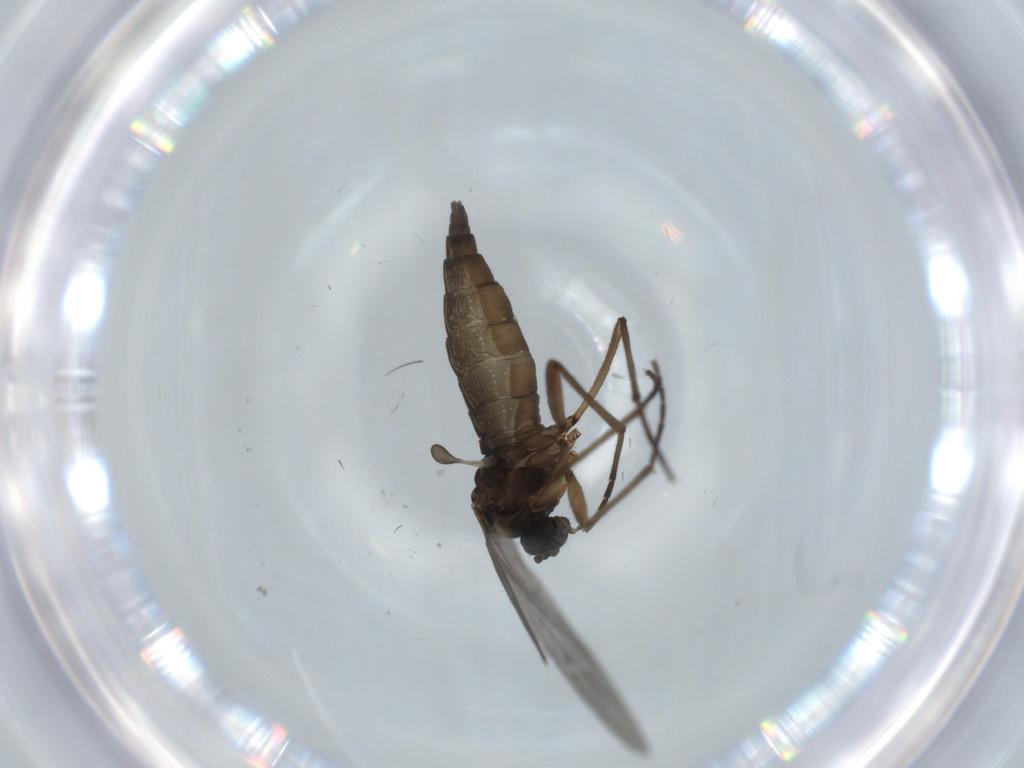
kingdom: Animalia
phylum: Arthropoda
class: Insecta
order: Diptera
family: Sciaridae
